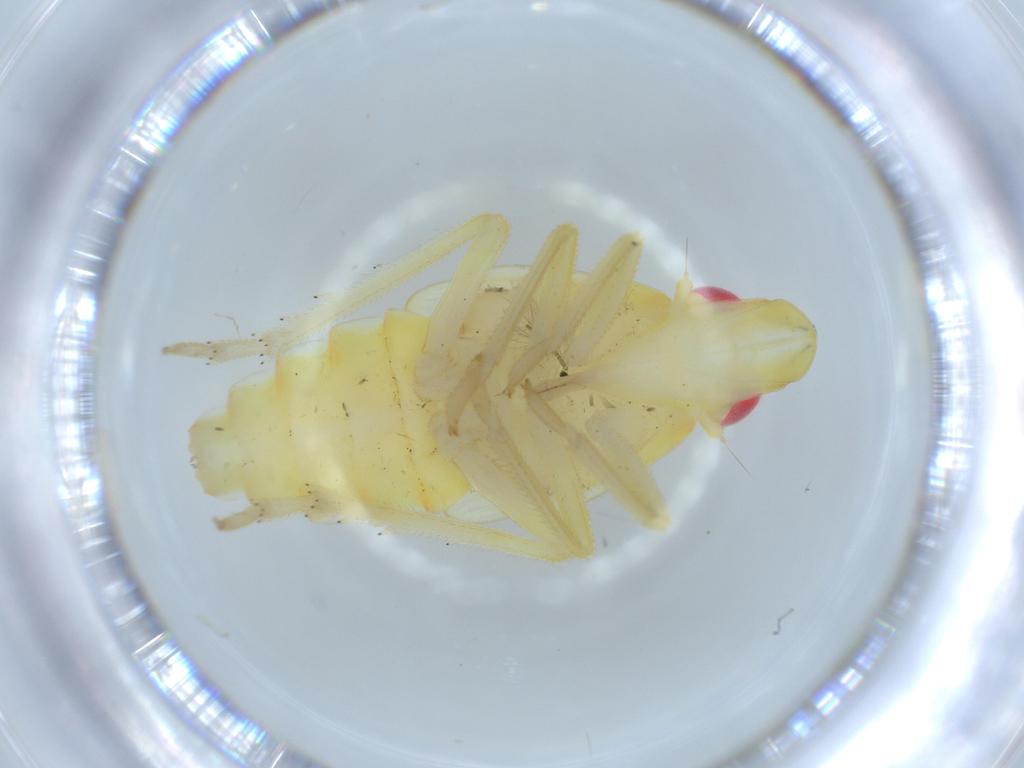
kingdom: Animalia
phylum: Arthropoda
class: Insecta
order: Hemiptera
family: Tropiduchidae
